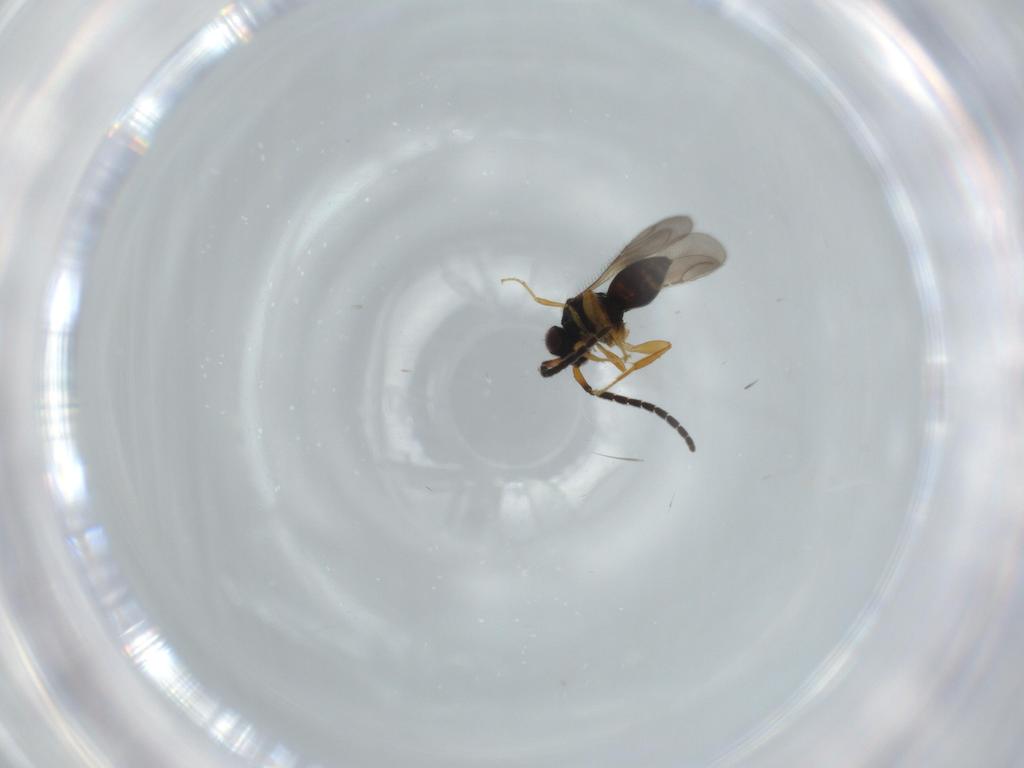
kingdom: Animalia
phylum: Arthropoda
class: Insecta
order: Hymenoptera
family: Ceraphronidae
